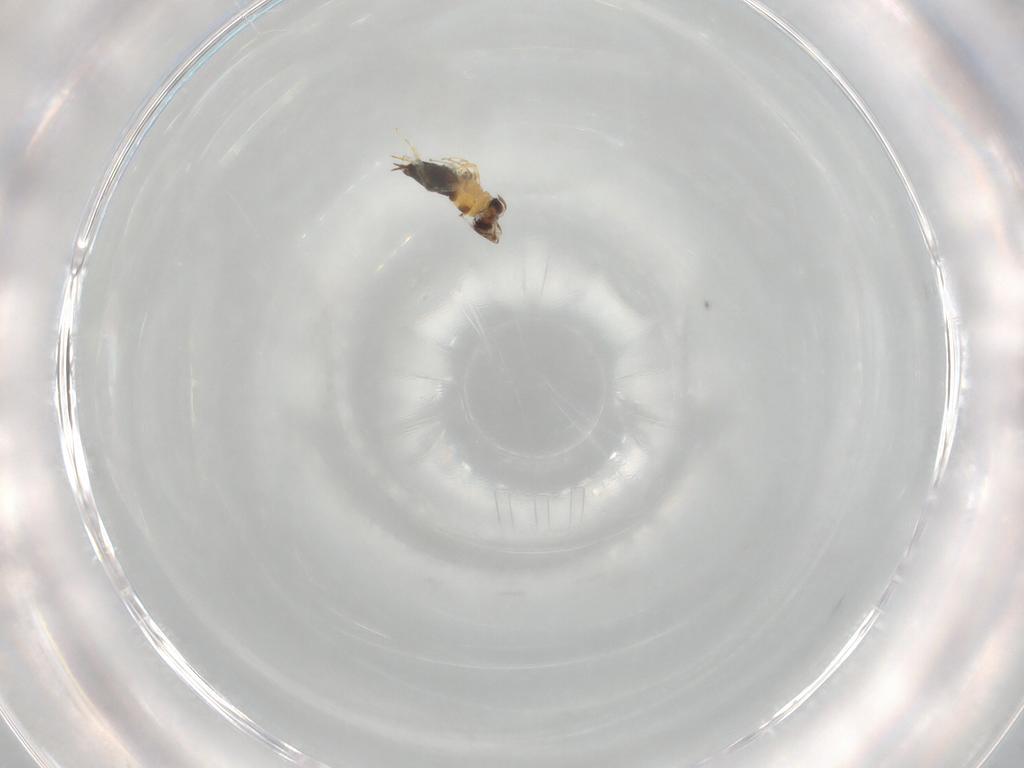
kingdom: Animalia
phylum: Arthropoda
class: Insecta
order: Hymenoptera
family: Aphelinidae
